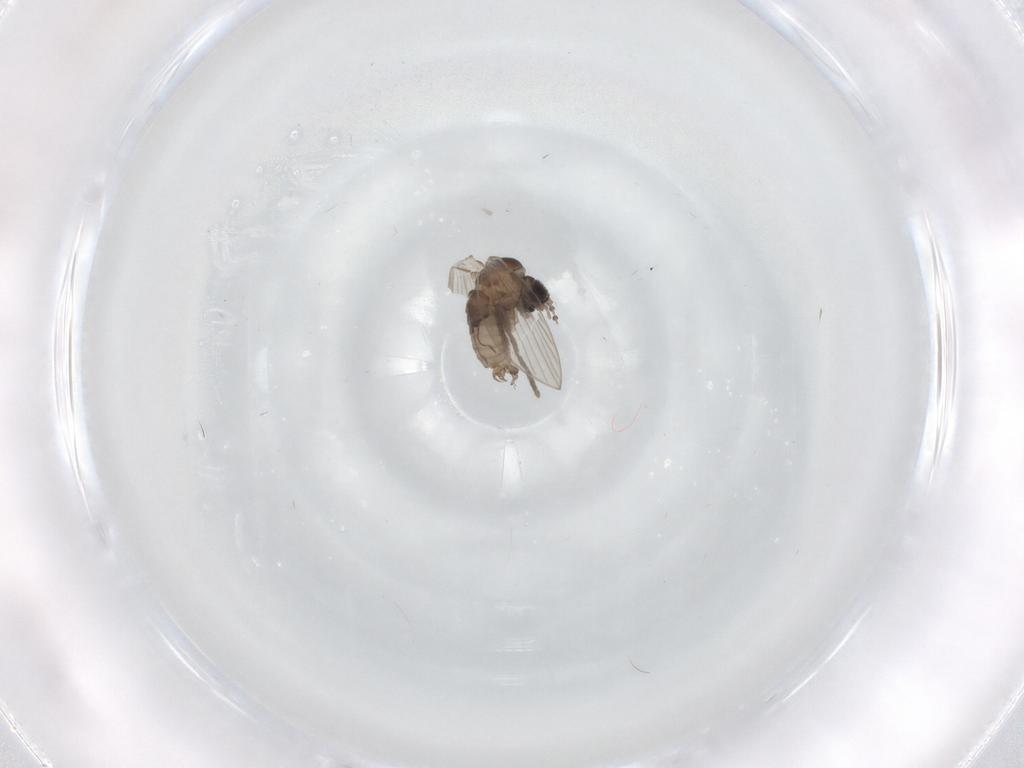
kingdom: Animalia
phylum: Arthropoda
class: Insecta
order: Diptera
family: Psychodidae
